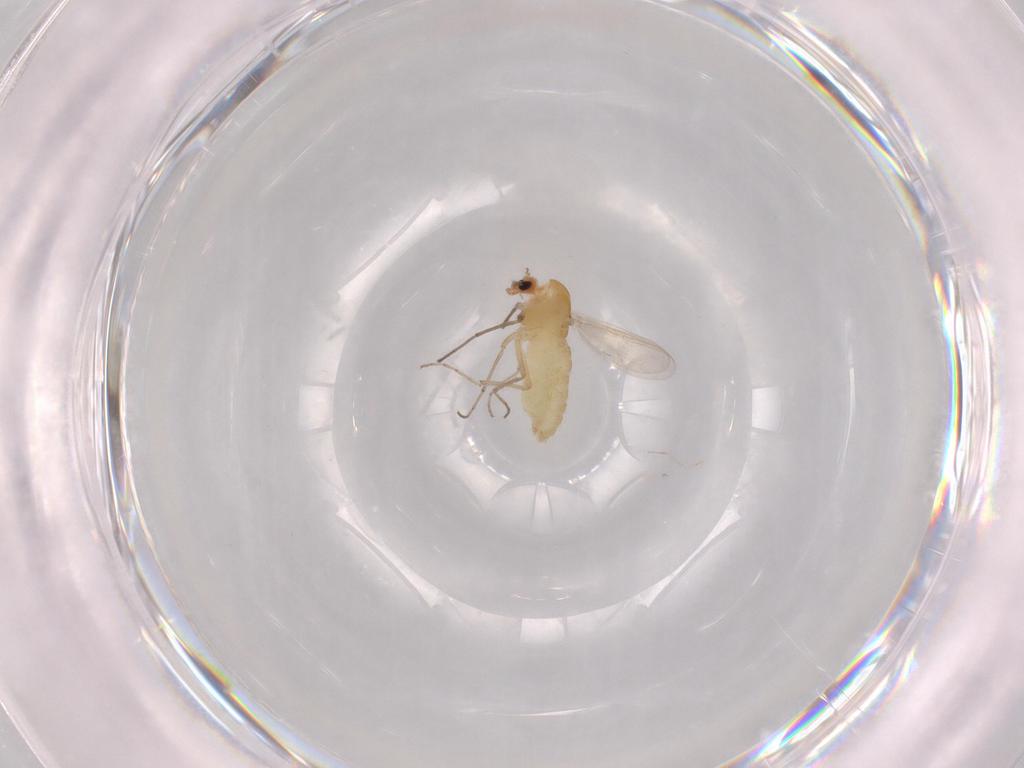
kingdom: Animalia
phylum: Arthropoda
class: Insecta
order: Diptera
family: Chironomidae
